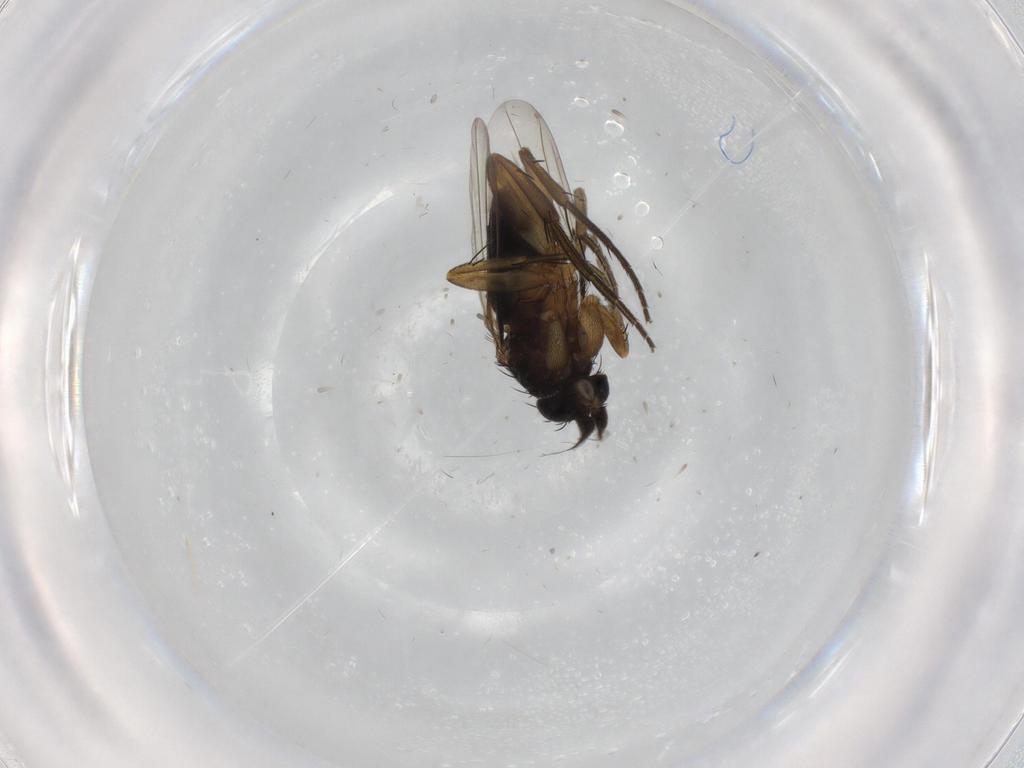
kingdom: Animalia
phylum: Arthropoda
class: Insecta
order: Diptera
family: Phoridae
